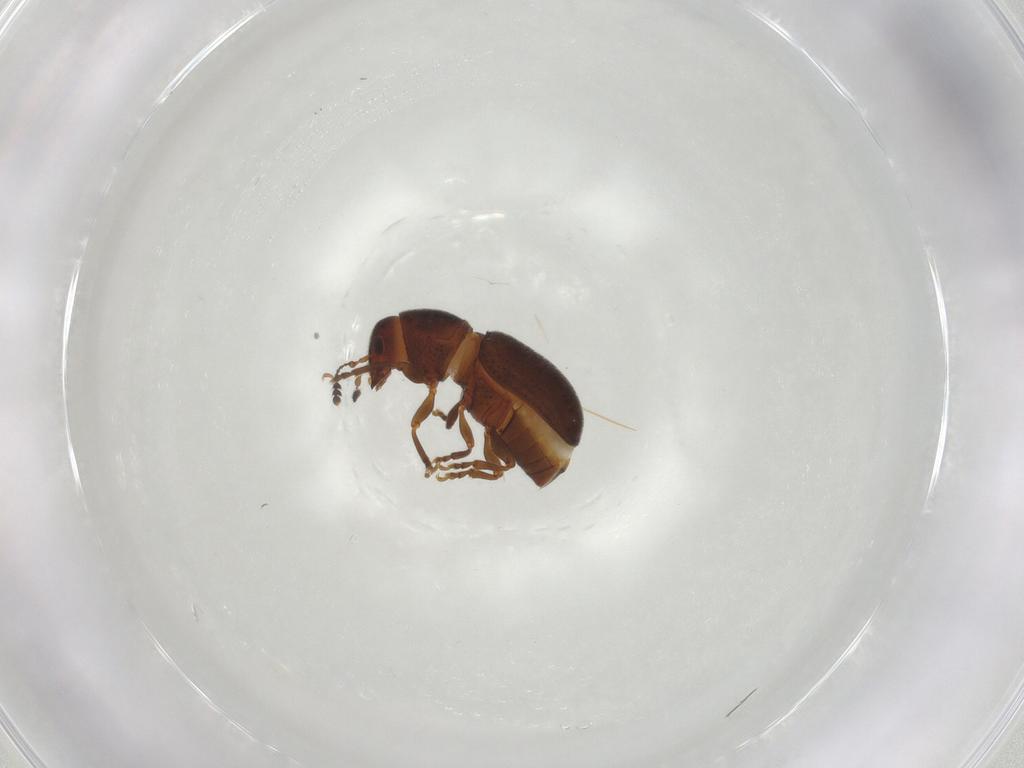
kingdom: Animalia
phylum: Arthropoda
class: Insecta
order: Coleoptera
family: Anthribidae
